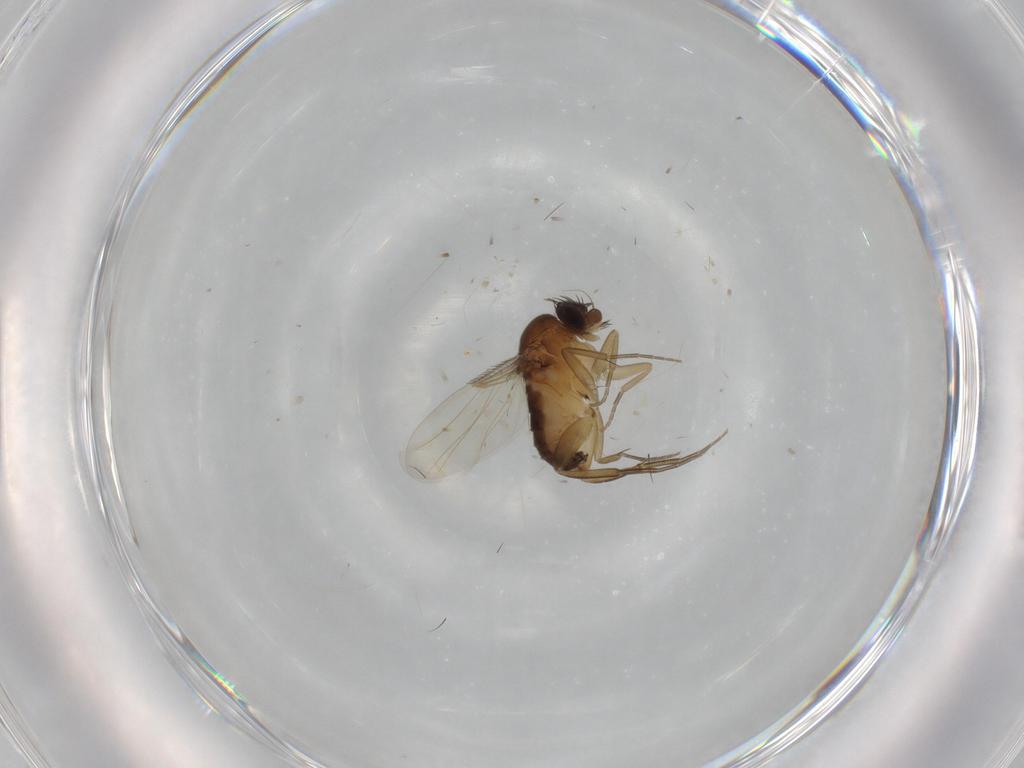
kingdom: Animalia
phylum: Arthropoda
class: Insecta
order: Diptera
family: Phoridae
